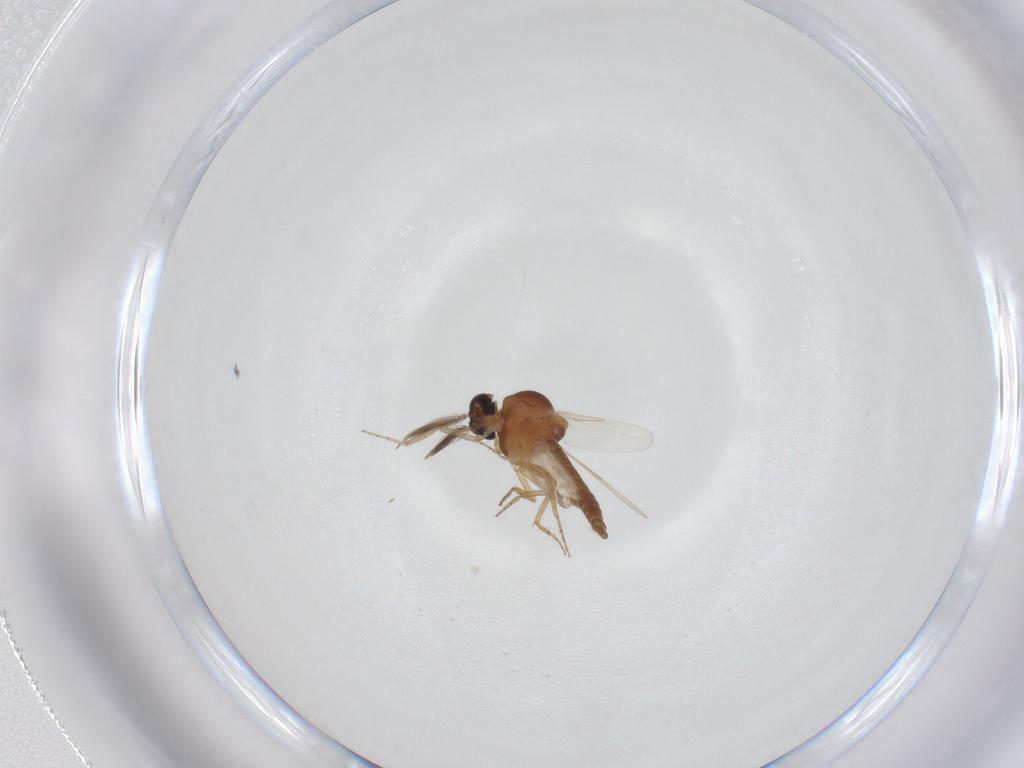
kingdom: Animalia
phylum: Arthropoda
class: Insecta
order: Diptera
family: Ceratopogonidae
